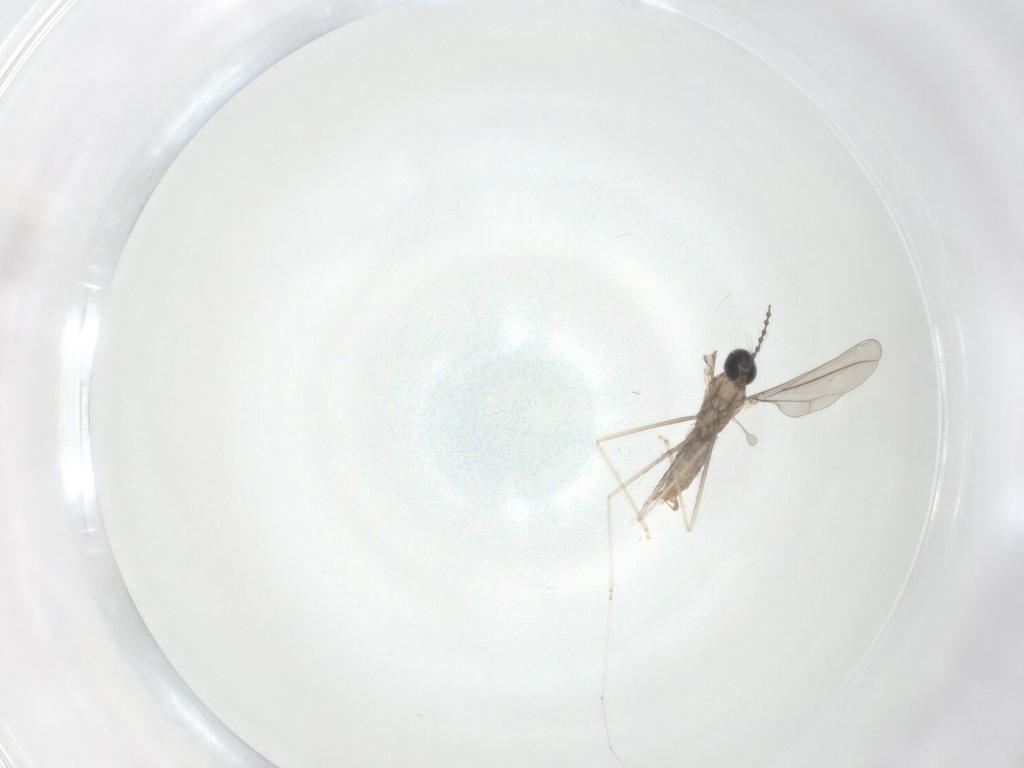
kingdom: Animalia
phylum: Arthropoda
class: Insecta
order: Diptera
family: Cecidomyiidae
